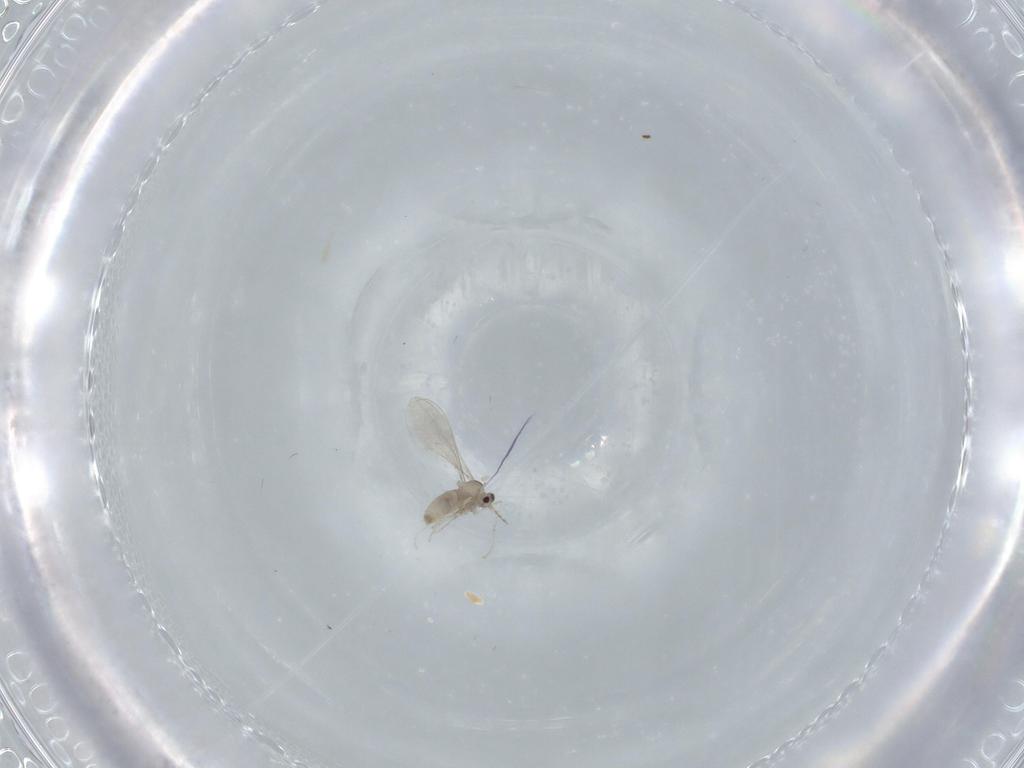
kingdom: Animalia
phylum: Arthropoda
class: Insecta
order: Diptera
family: Cecidomyiidae
